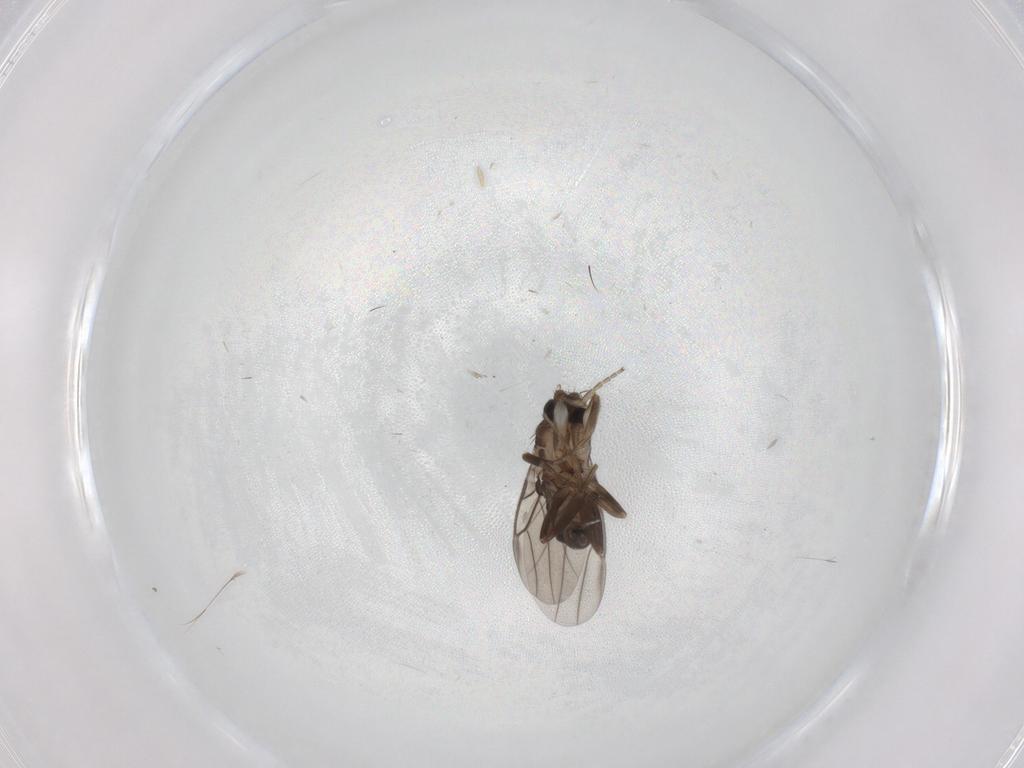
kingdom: Animalia
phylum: Arthropoda
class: Insecta
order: Diptera
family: Phoridae
